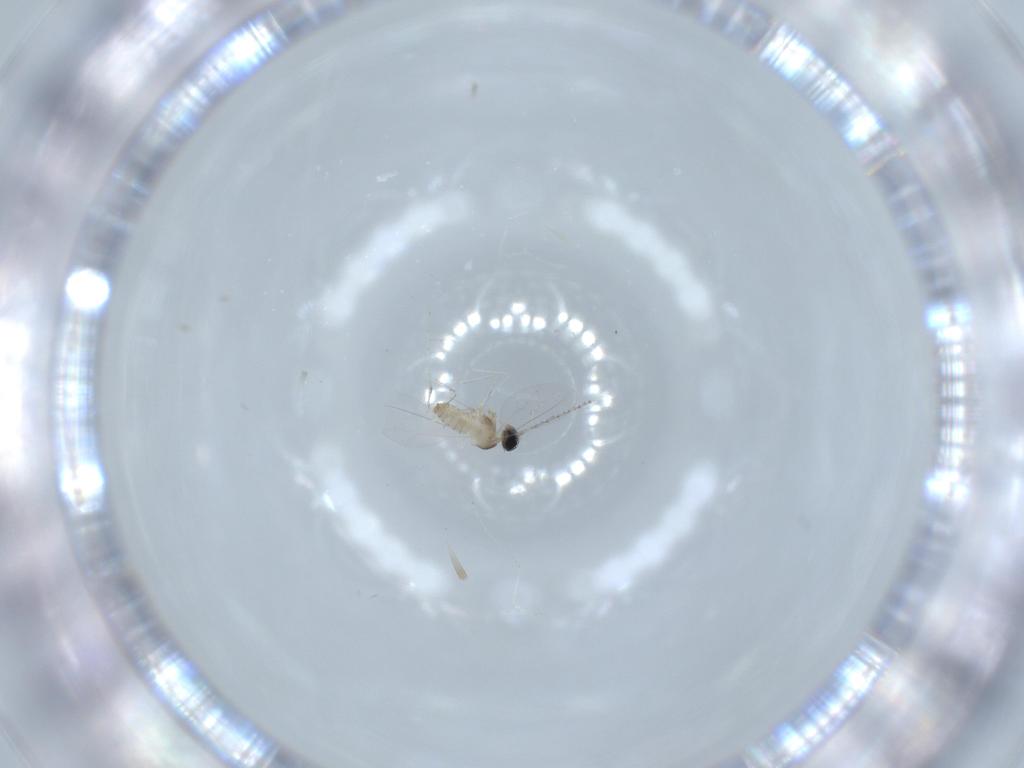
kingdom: Animalia
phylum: Arthropoda
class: Insecta
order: Diptera
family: Cecidomyiidae
